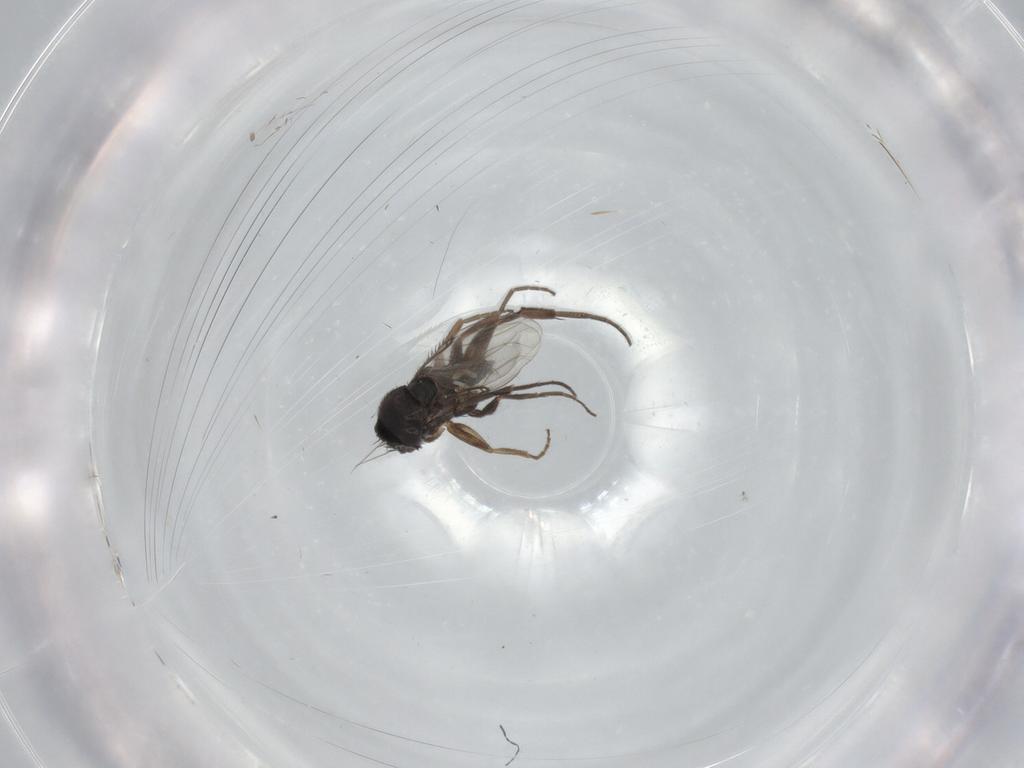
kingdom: Animalia
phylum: Arthropoda
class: Insecta
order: Diptera
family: Phoridae
